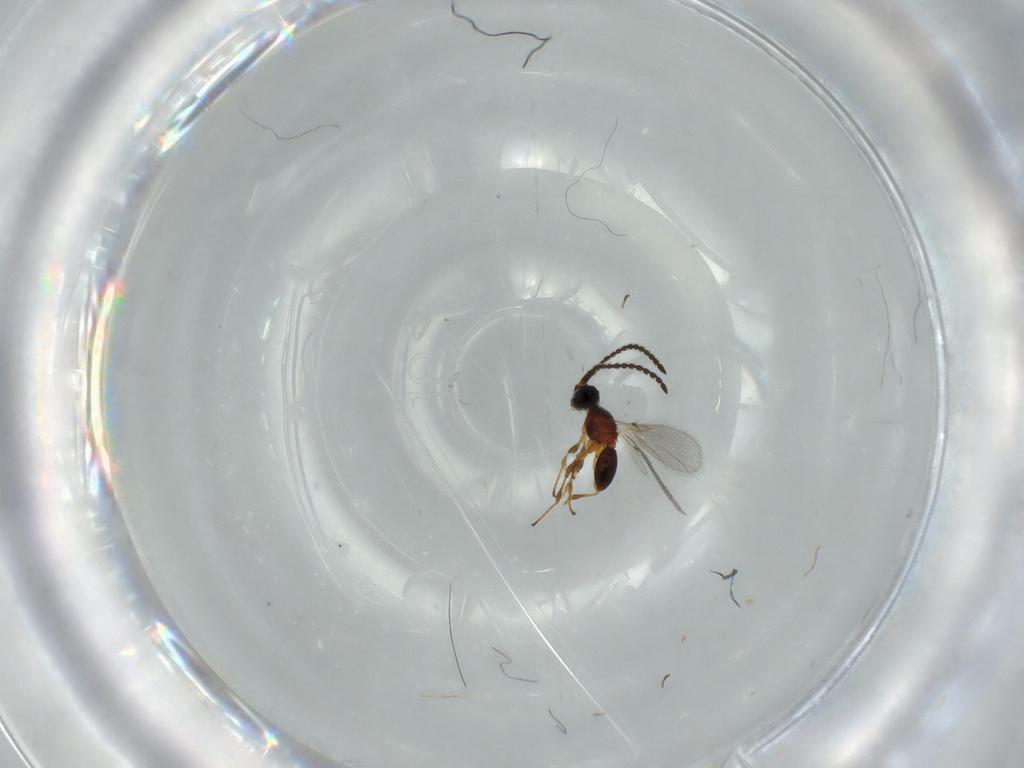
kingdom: Animalia
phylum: Arthropoda
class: Insecta
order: Hymenoptera
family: Diapriidae
